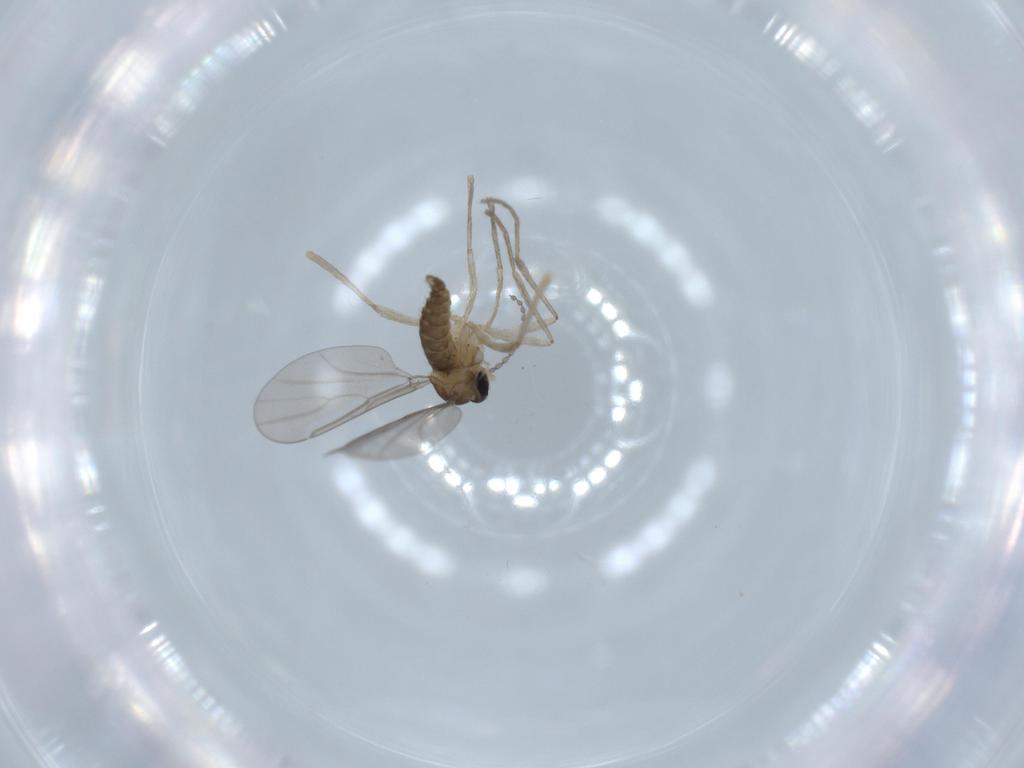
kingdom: Animalia
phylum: Arthropoda
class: Insecta
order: Diptera
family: Cecidomyiidae
